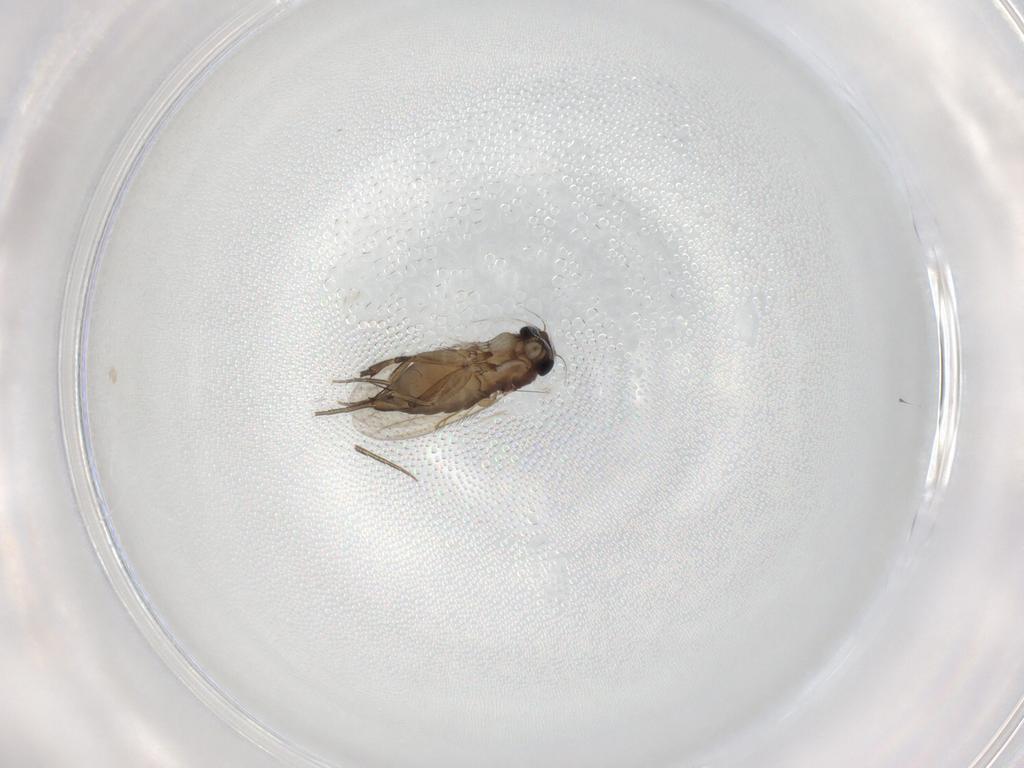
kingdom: Animalia
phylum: Arthropoda
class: Insecta
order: Diptera
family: Phoridae
